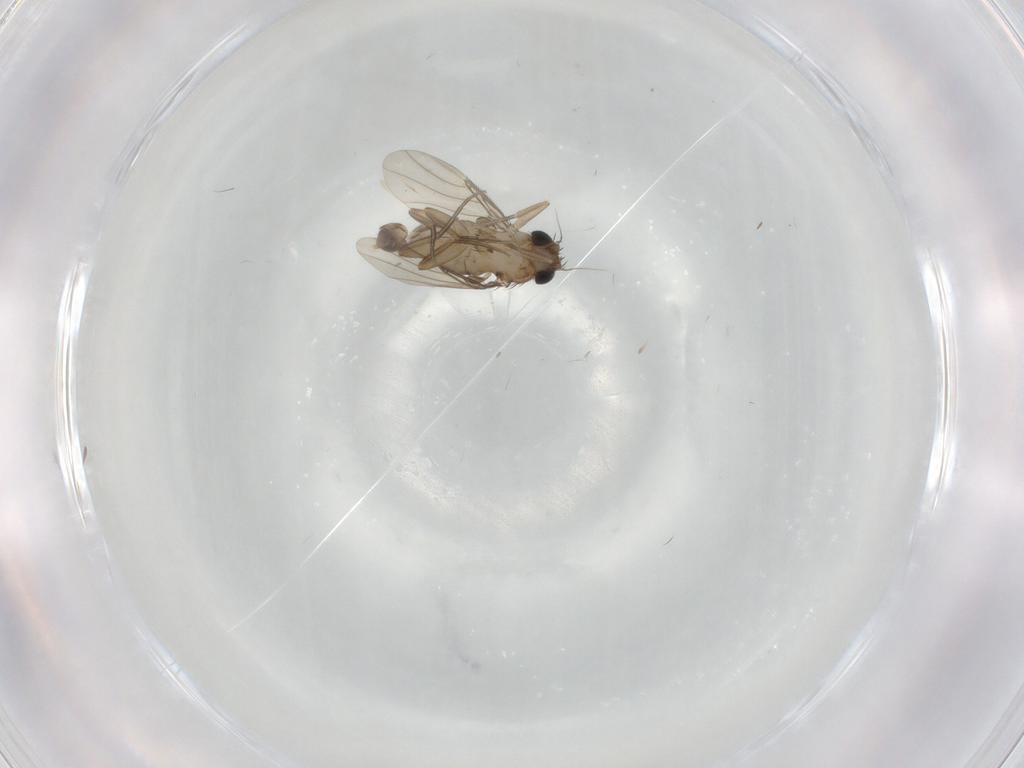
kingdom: Animalia
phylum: Arthropoda
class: Insecta
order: Diptera
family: Phoridae
